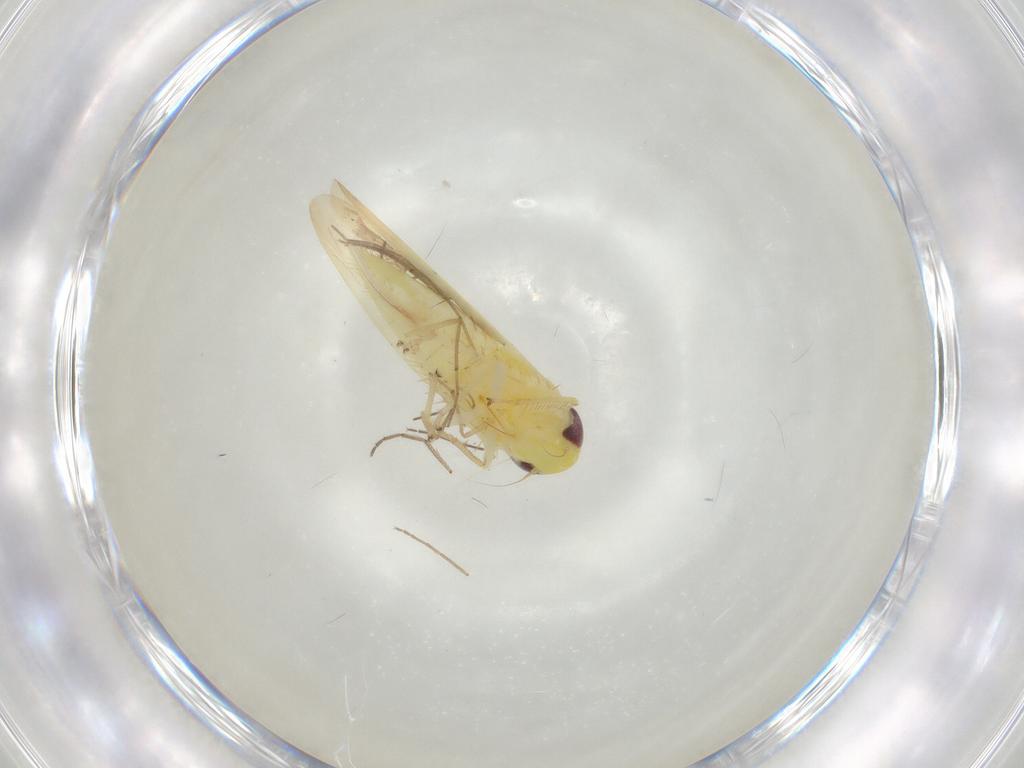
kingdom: Animalia
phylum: Arthropoda
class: Insecta
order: Hemiptera
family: Cicadellidae
